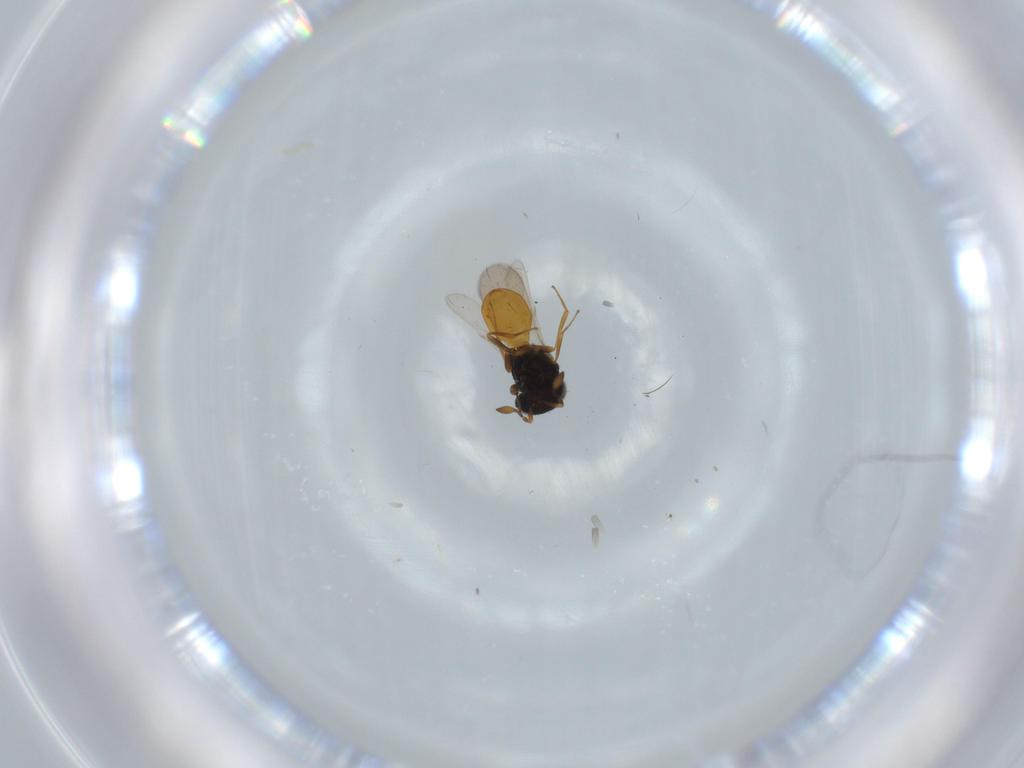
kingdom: Animalia
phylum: Arthropoda
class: Insecta
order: Hymenoptera
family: Scelionidae
